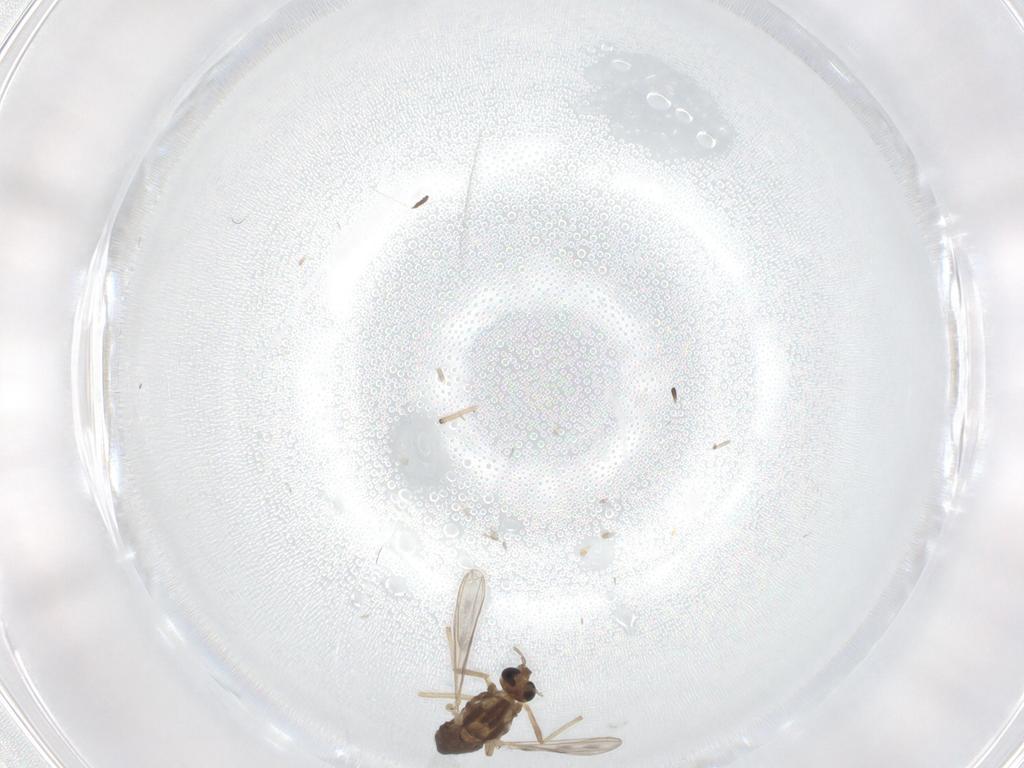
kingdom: Animalia
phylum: Arthropoda
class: Insecta
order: Diptera
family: Chironomidae
